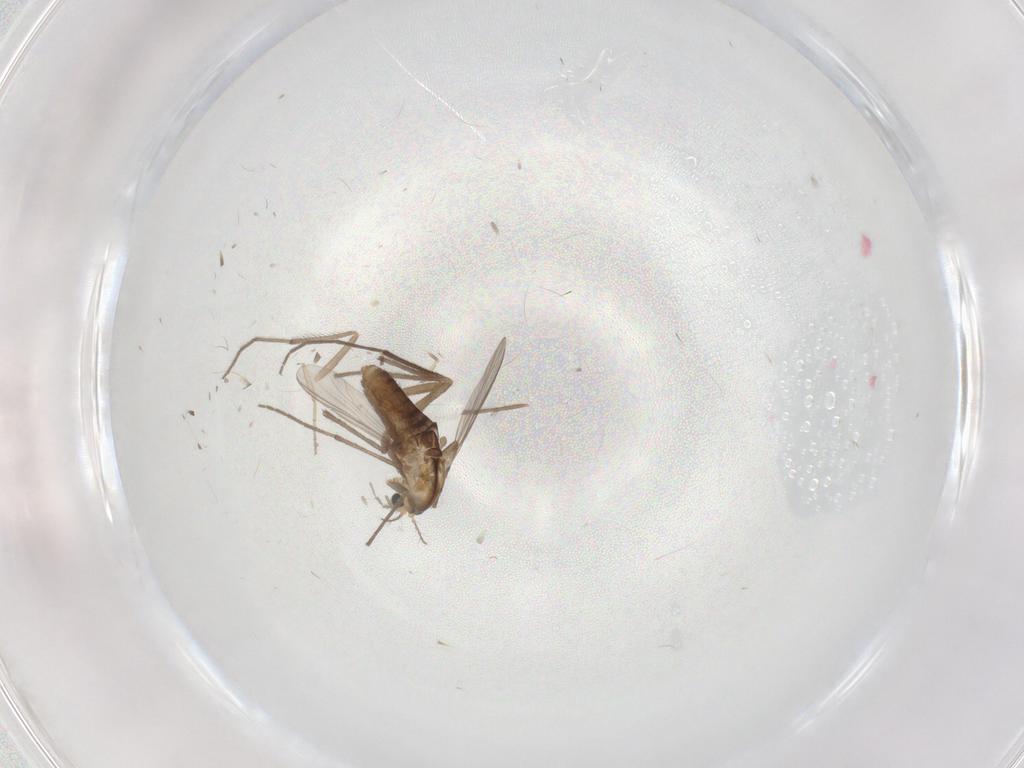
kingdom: Animalia
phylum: Arthropoda
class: Insecta
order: Diptera
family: Chironomidae
